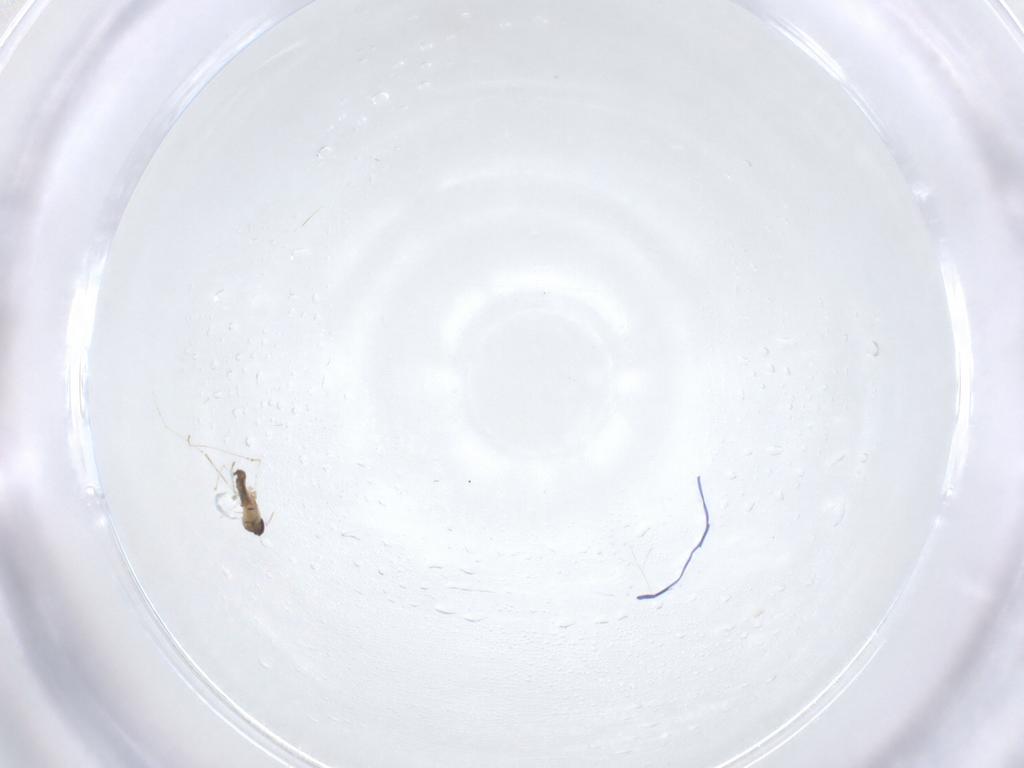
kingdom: Animalia
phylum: Arthropoda
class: Insecta
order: Diptera
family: Cecidomyiidae
